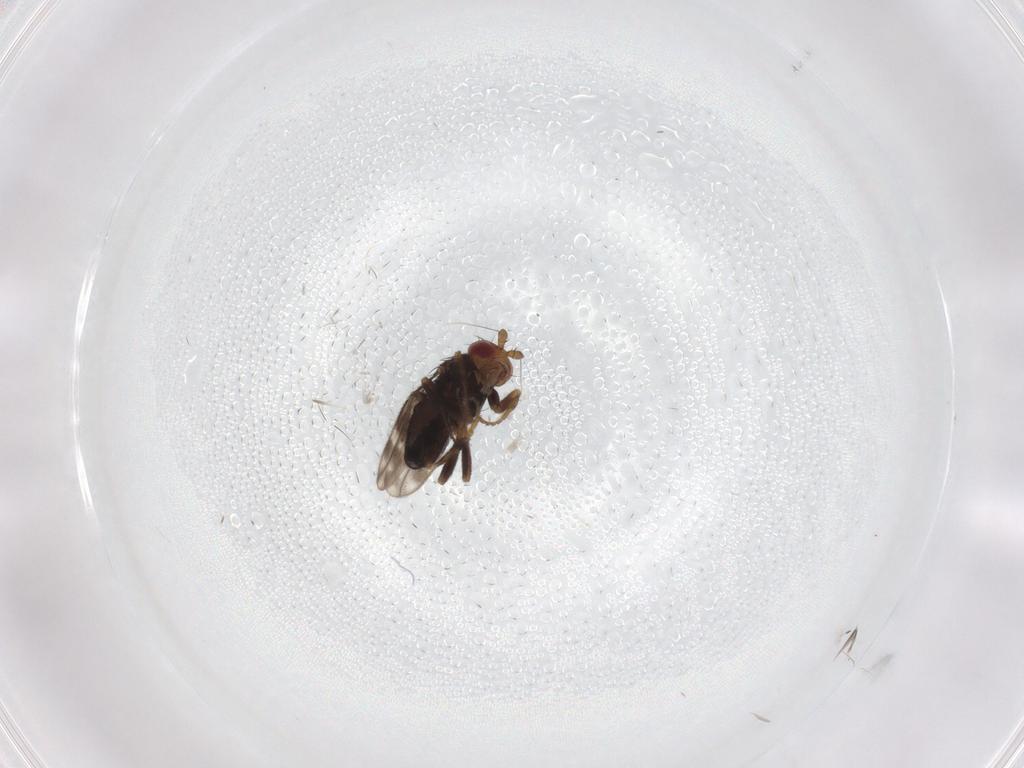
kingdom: Animalia
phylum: Arthropoda
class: Insecta
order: Diptera
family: Sphaeroceridae
